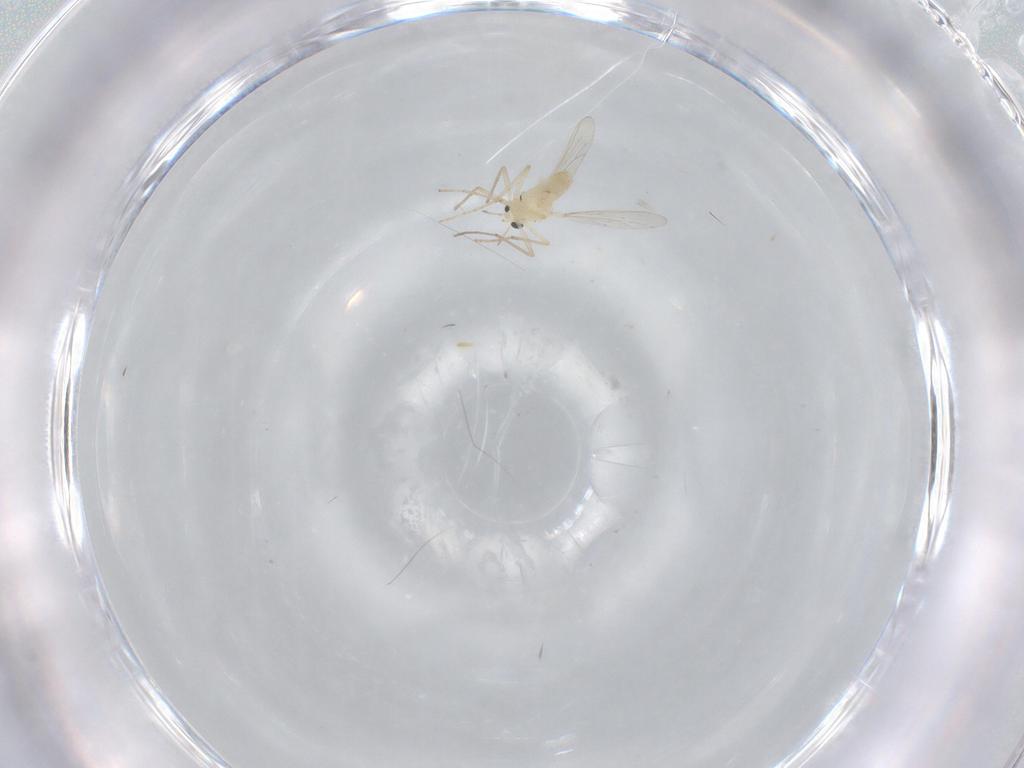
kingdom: Animalia
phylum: Arthropoda
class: Insecta
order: Diptera
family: Chironomidae
